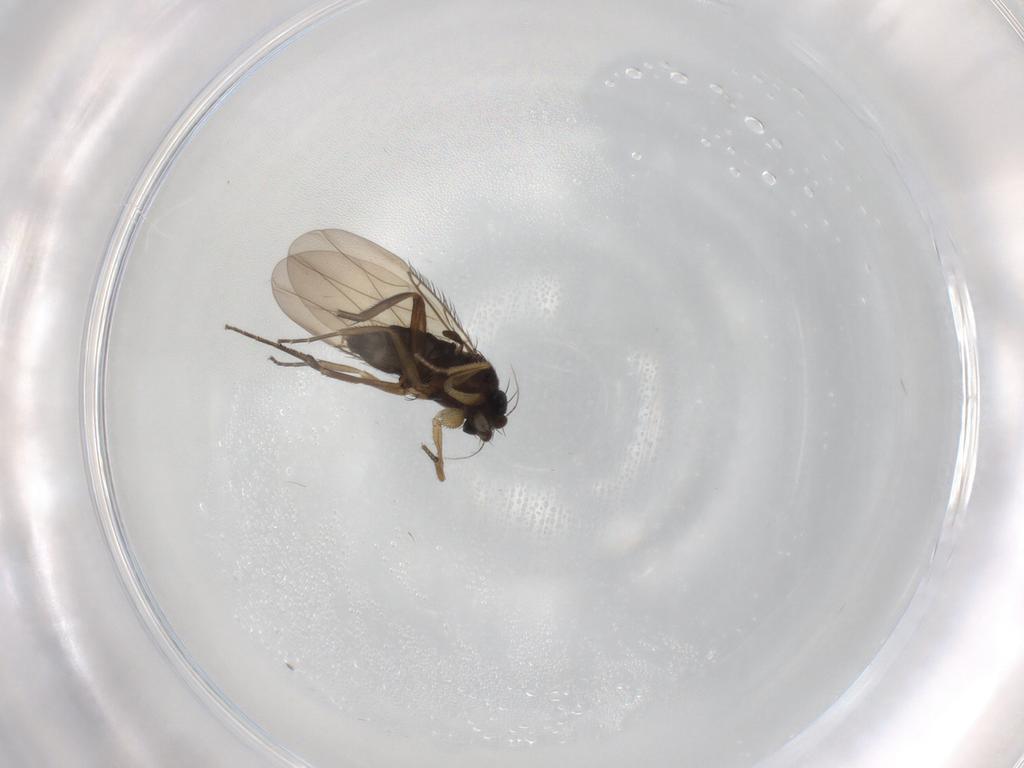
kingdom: Animalia
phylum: Arthropoda
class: Insecta
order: Diptera
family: Phoridae
